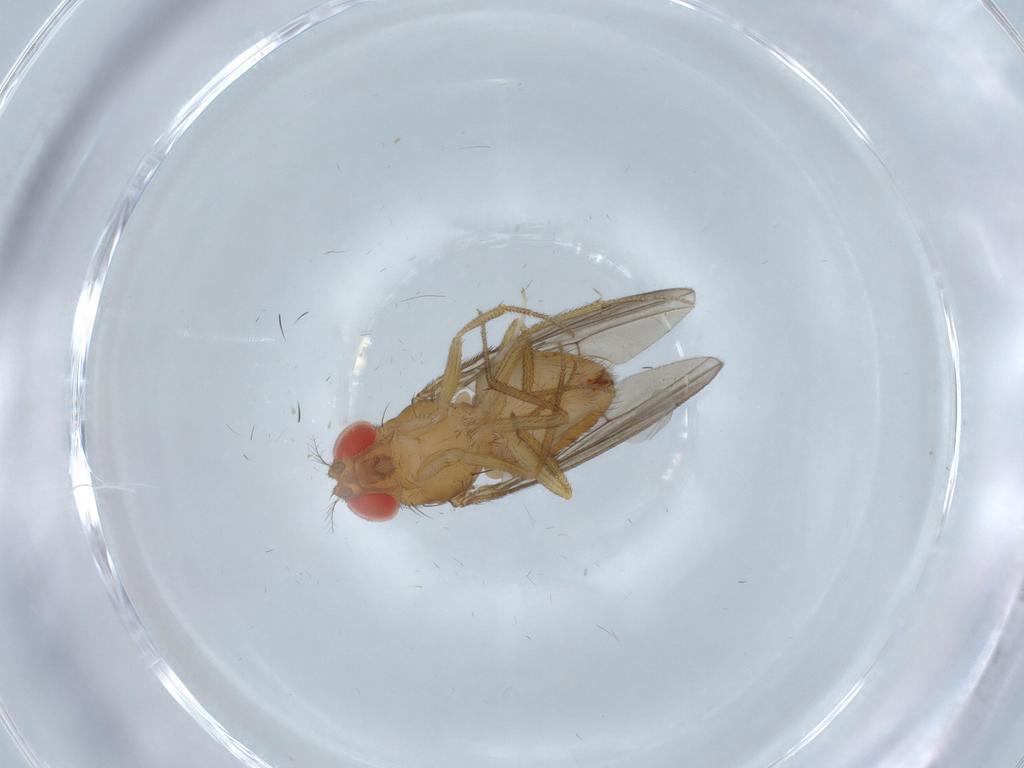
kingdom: Animalia
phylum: Arthropoda
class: Insecta
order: Diptera
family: Drosophilidae
